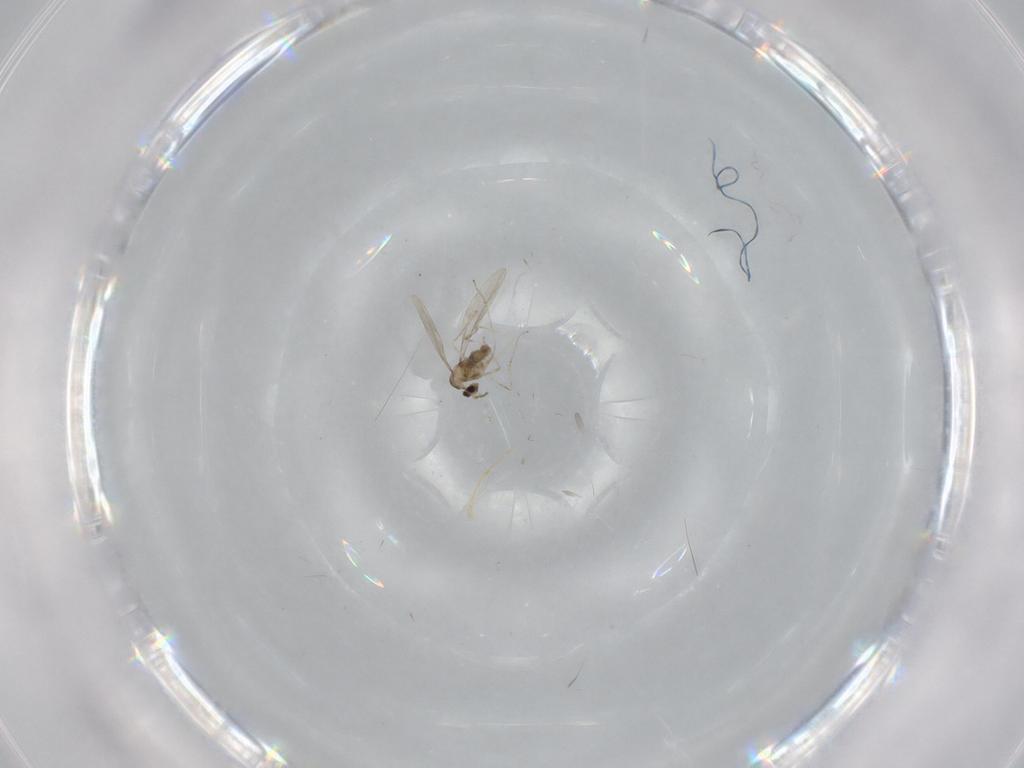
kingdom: Animalia
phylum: Arthropoda
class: Insecta
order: Diptera
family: Cecidomyiidae
